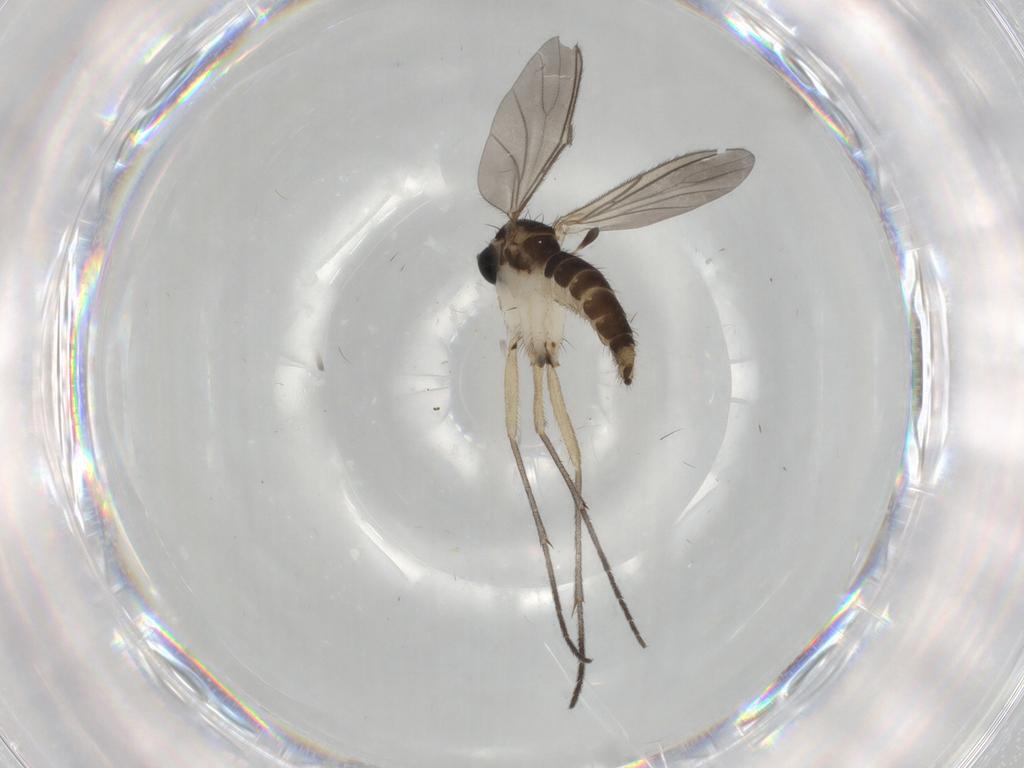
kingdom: Animalia
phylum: Arthropoda
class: Insecta
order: Diptera
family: Sciaridae
